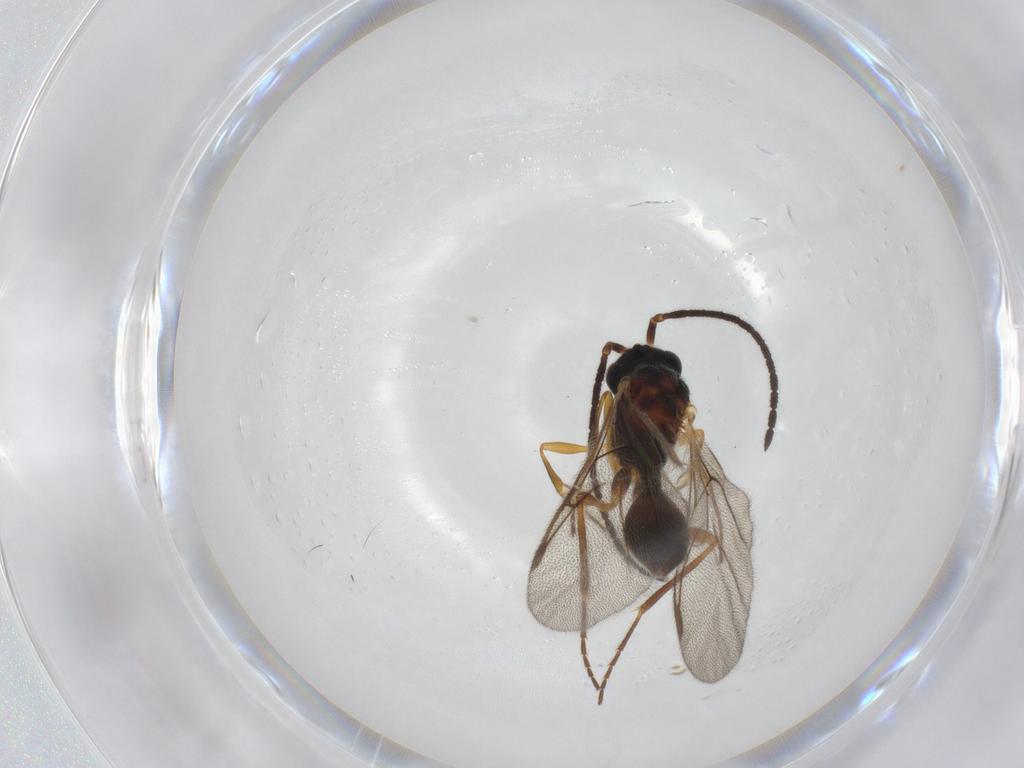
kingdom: Animalia
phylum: Arthropoda
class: Insecta
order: Hymenoptera
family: Diapriidae
